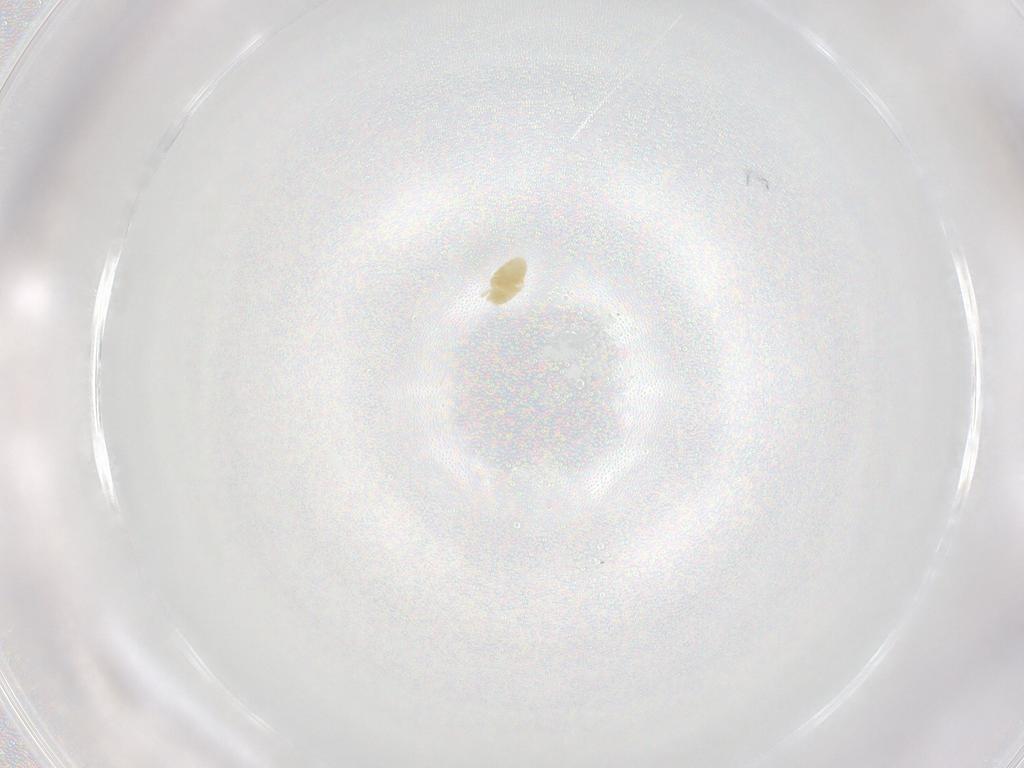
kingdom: Animalia
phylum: Arthropoda
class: Arachnida
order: Trombidiformes
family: Eupodidae
